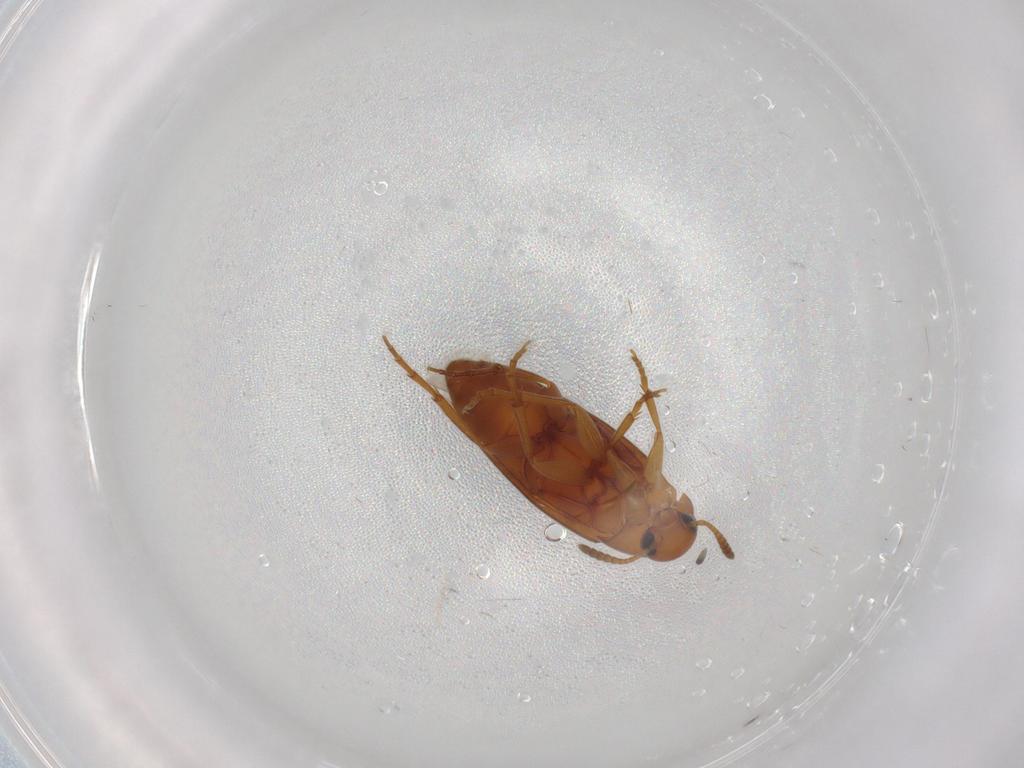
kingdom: Animalia
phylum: Arthropoda
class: Insecta
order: Coleoptera
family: Scraptiidae
